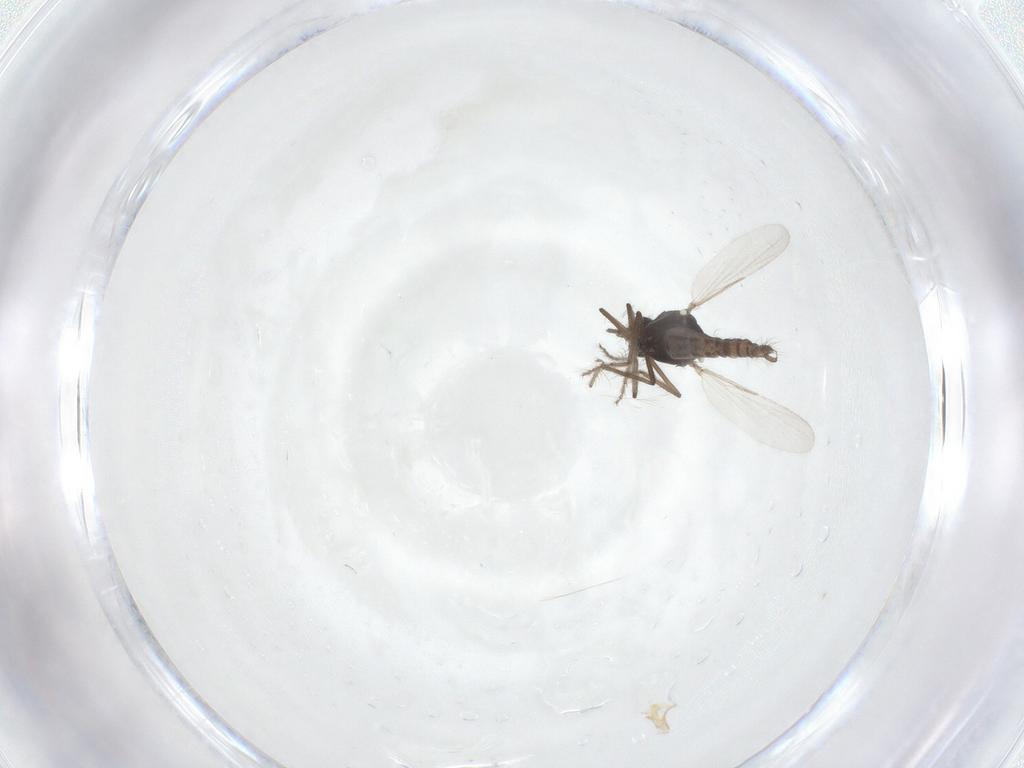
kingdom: Animalia
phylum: Arthropoda
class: Insecta
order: Diptera
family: Ceratopogonidae
